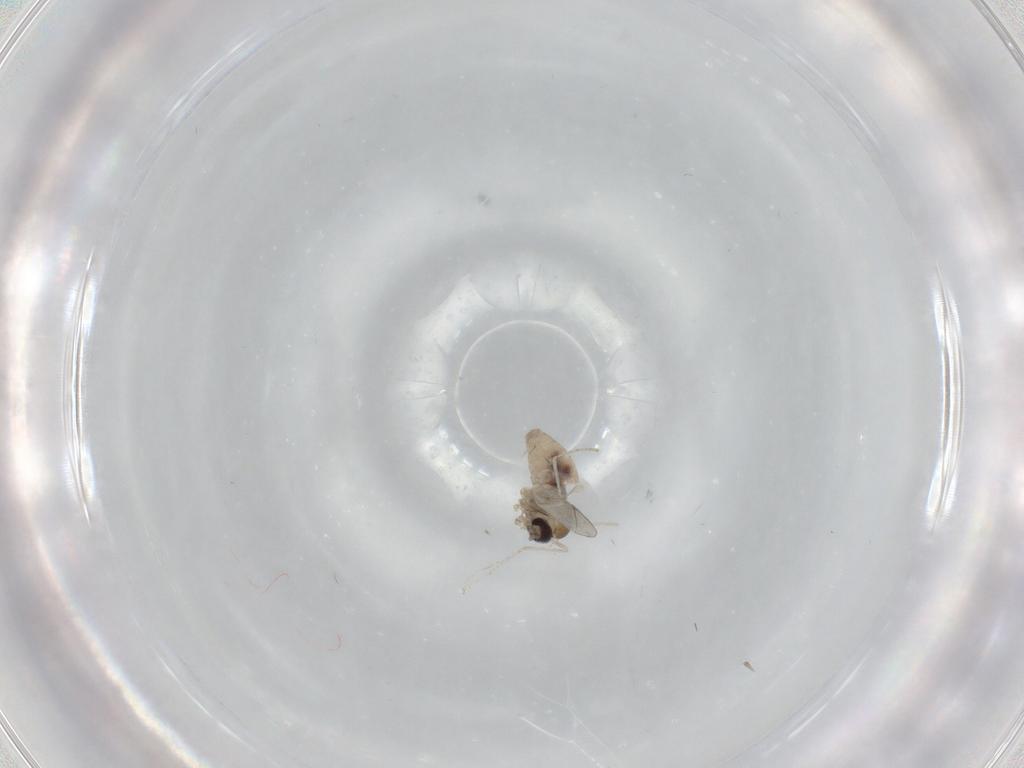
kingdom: Animalia
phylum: Arthropoda
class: Insecta
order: Diptera
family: Cecidomyiidae
